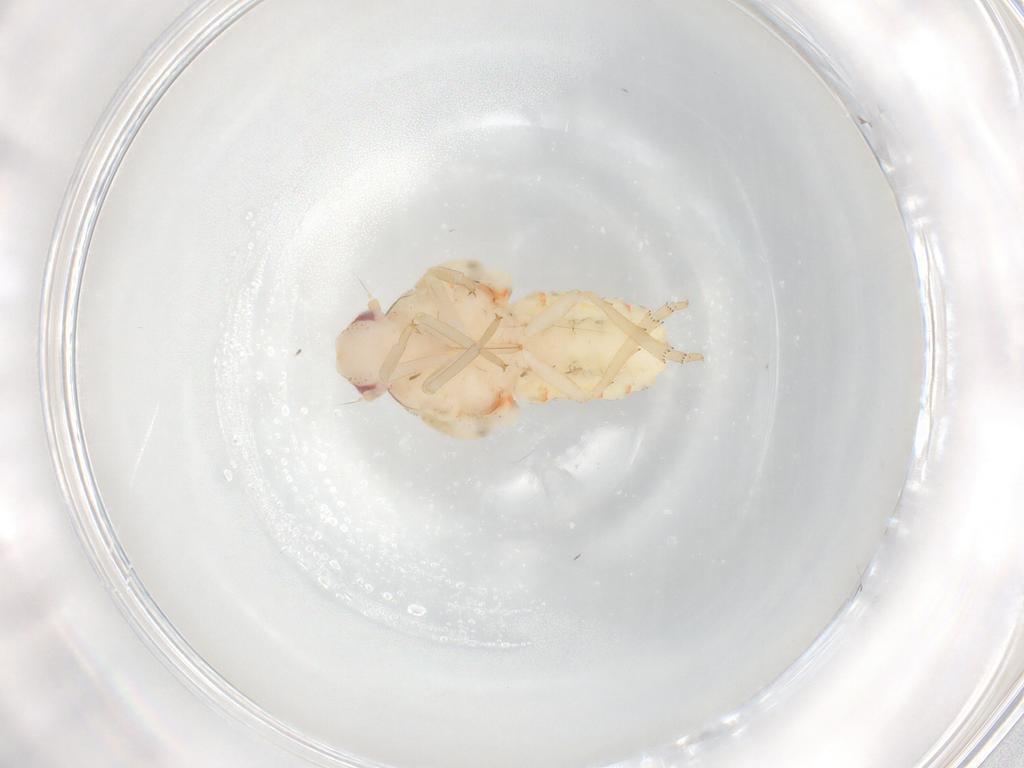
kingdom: Animalia
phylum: Arthropoda
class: Insecta
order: Hemiptera
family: Flatidae
